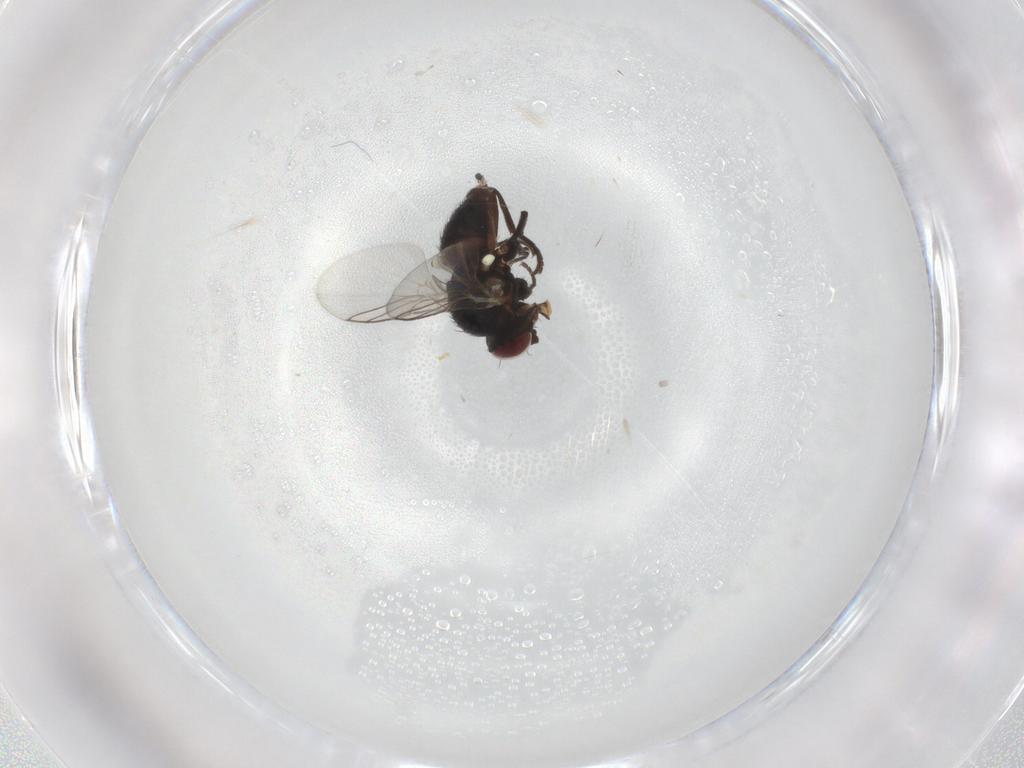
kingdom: Animalia
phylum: Arthropoda
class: Insecta
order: Diptera
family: Agromyzidae
